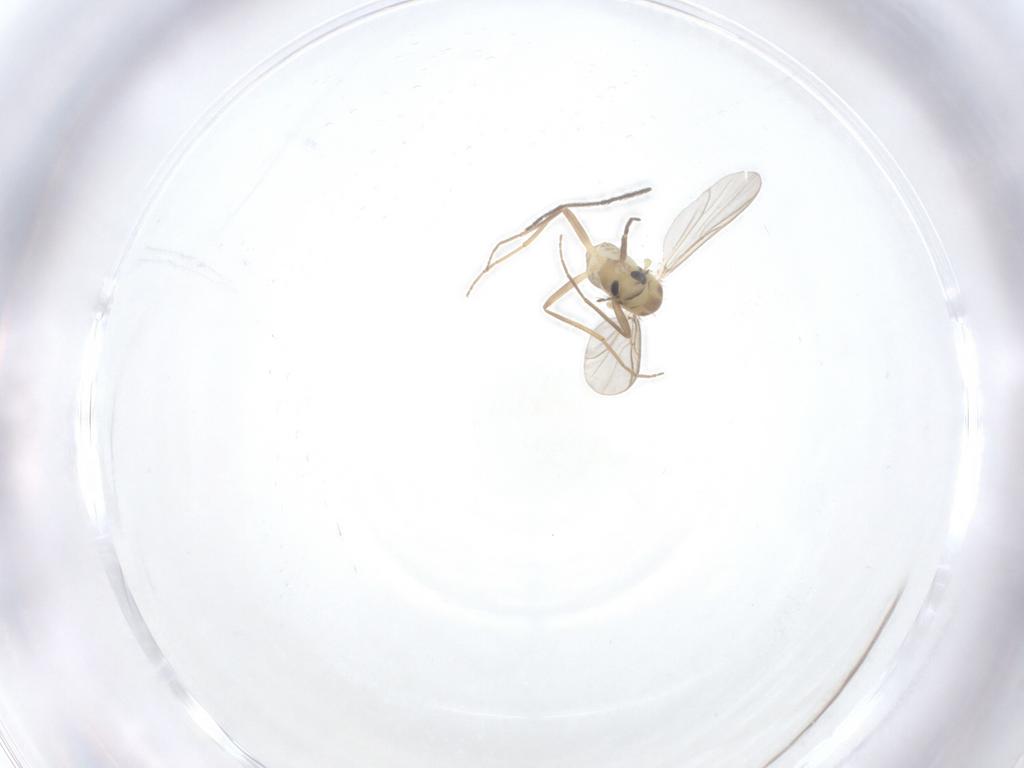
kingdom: Animalia
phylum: Arthropoda
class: Insecta
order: Diptera
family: Chironomidae
